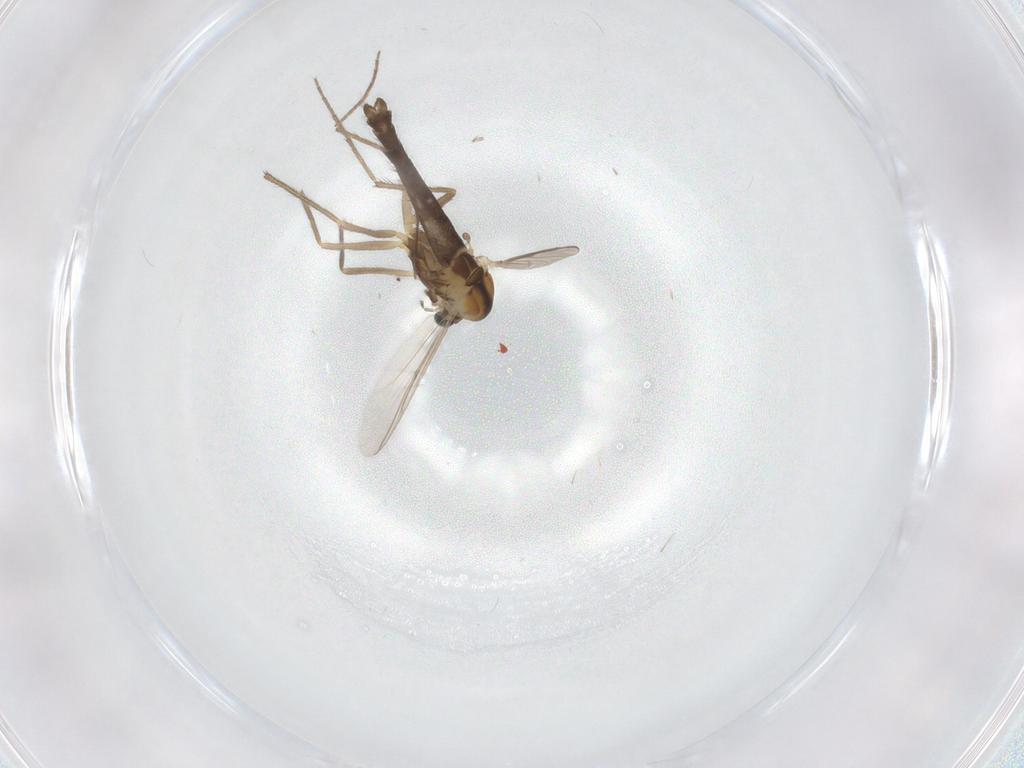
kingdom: Animalia
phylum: Arthropoda
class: Insecta
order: Diptera
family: Chironomidae
